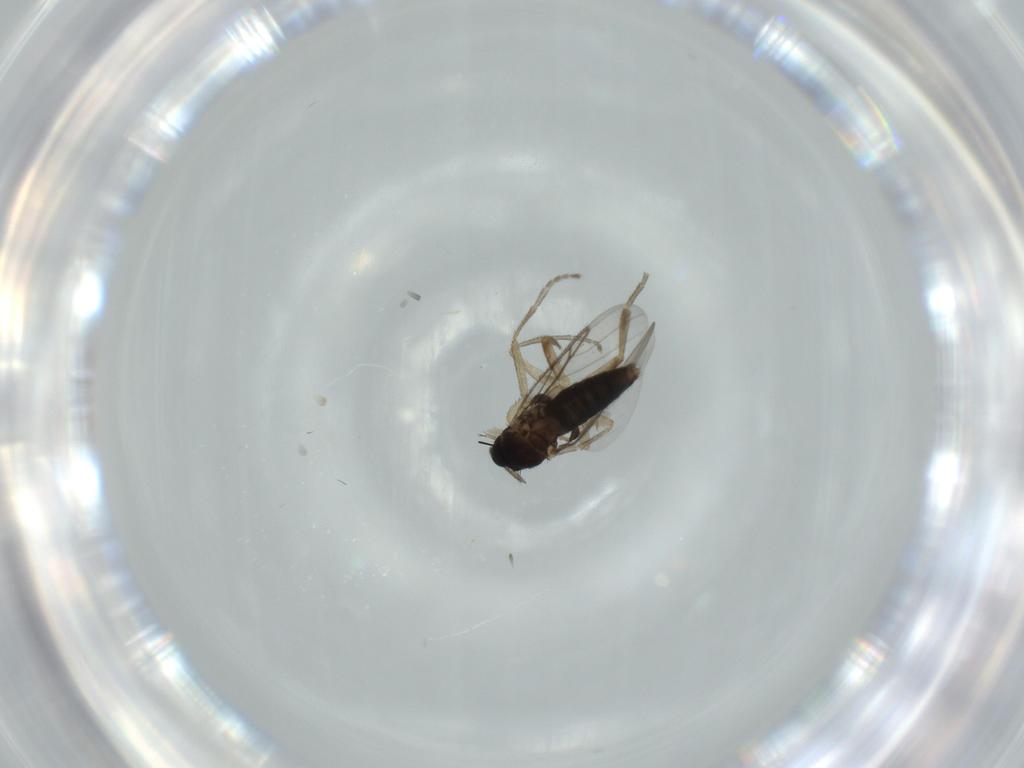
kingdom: Animalia
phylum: Arthropoda
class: Insecta
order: Diptera
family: Phoridae
